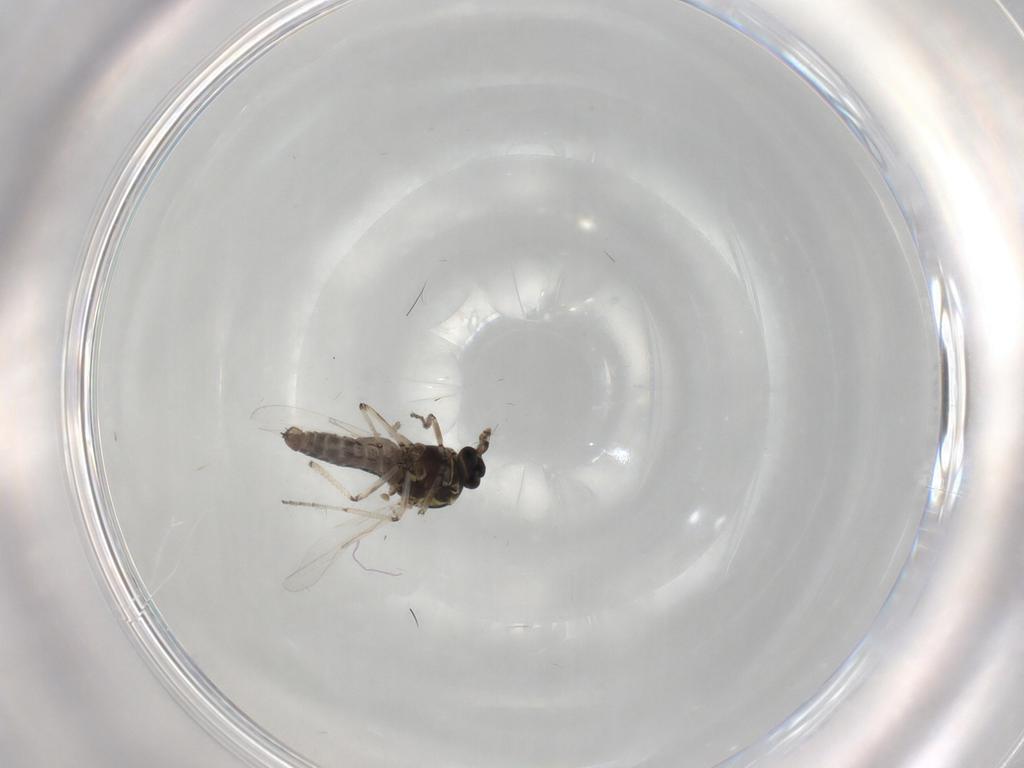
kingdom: Animalia
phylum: Arthropoda
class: Insecta
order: Diptera
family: Ceratopogonidae
